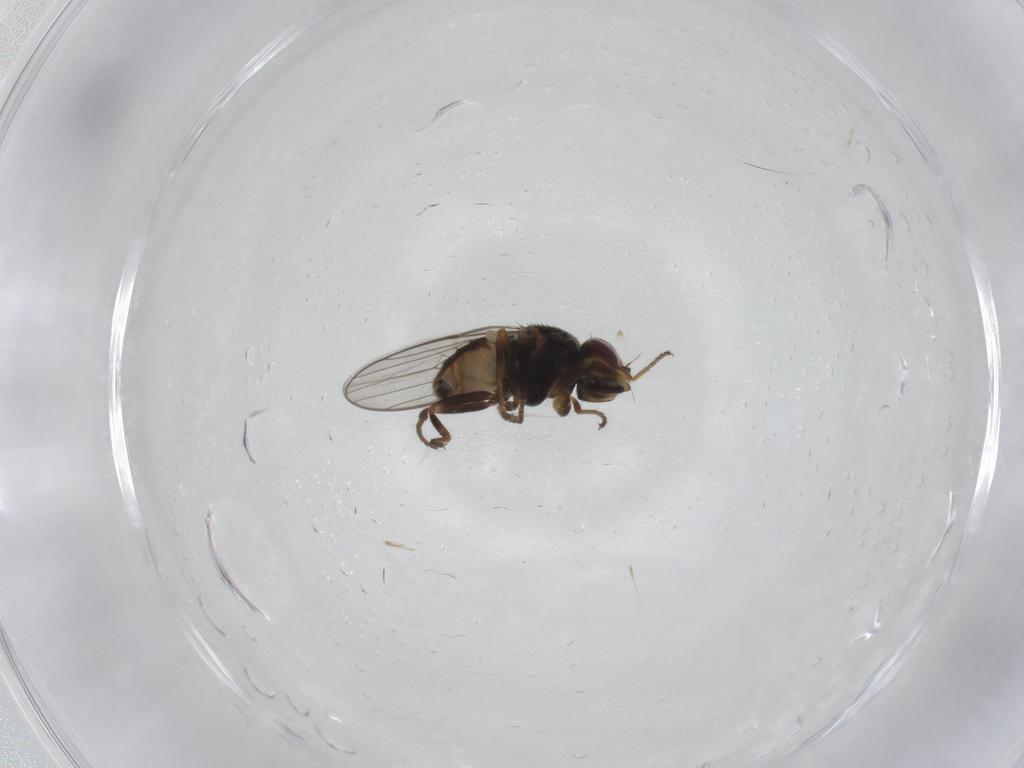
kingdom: Animalia
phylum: Arthropoda
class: Insecta
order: Diptera
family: Chloropidae
